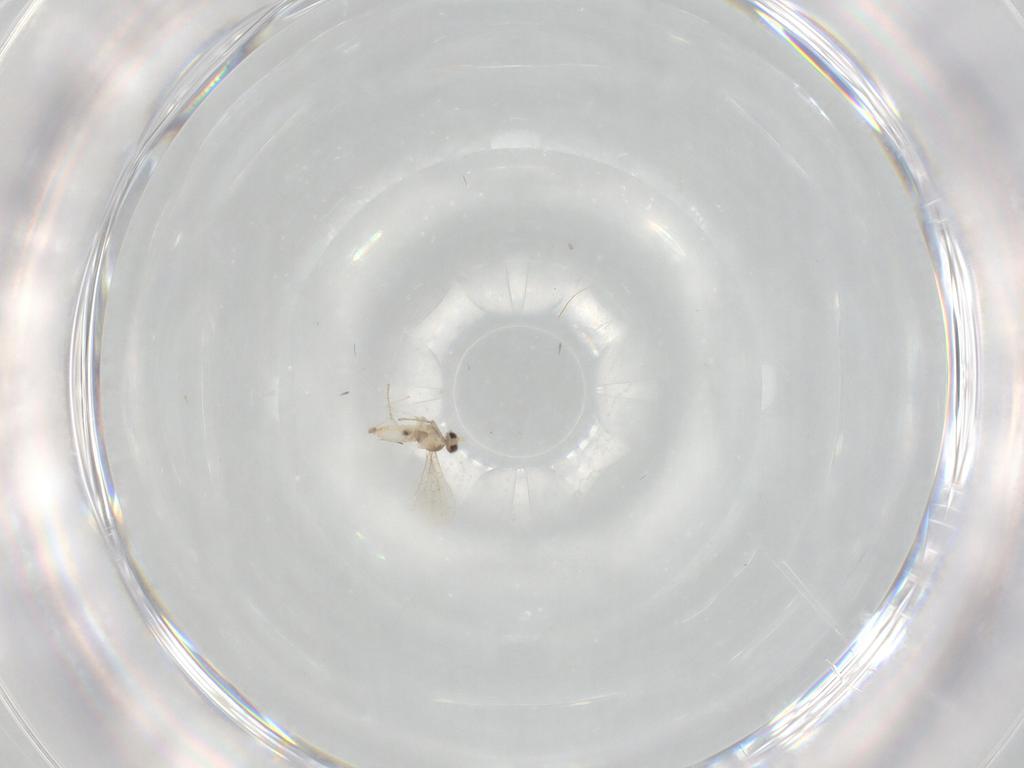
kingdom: Animalia
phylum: Arthropoda
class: Insecta
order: Diptera
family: Cecidomyiidae
